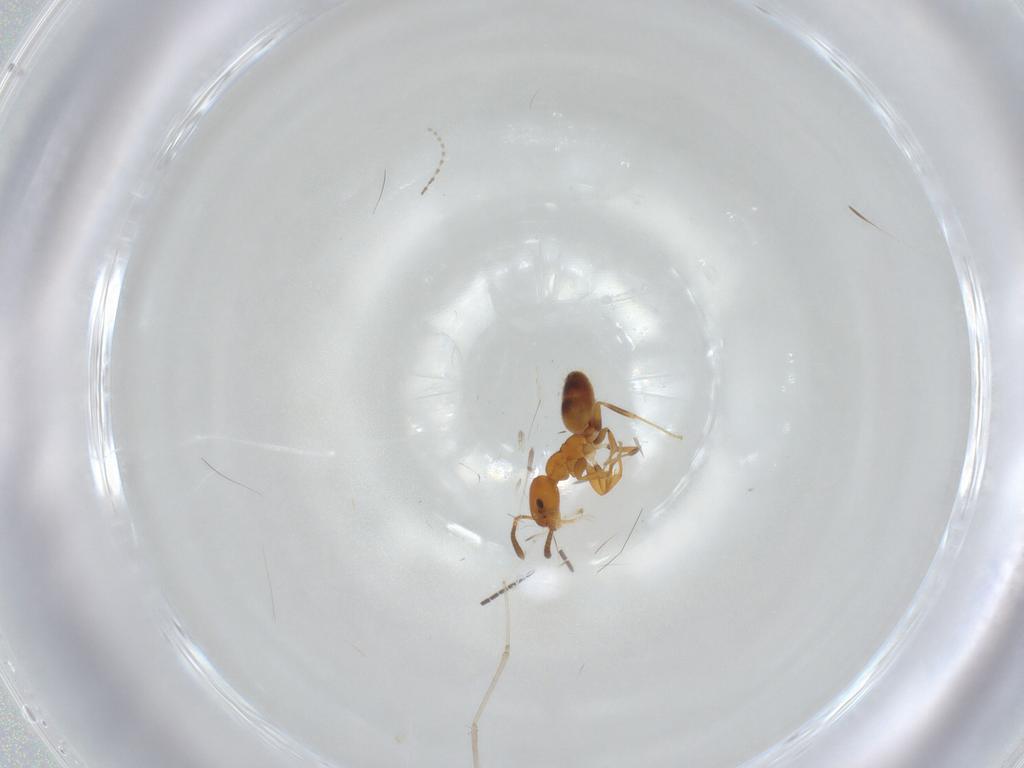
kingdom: Animalia
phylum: Arthropoda
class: Insecta
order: Hymenoptera
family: Formicidae
